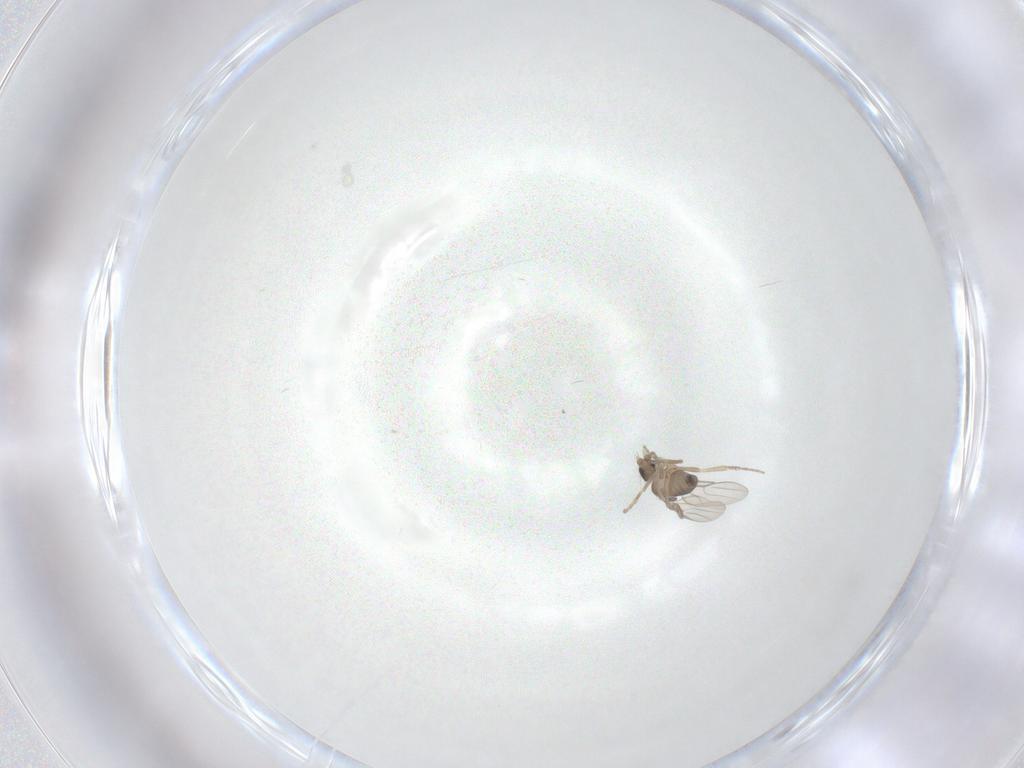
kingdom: Animalia
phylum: Arthropoda
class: Insecta
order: Diptera
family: Phoridae
